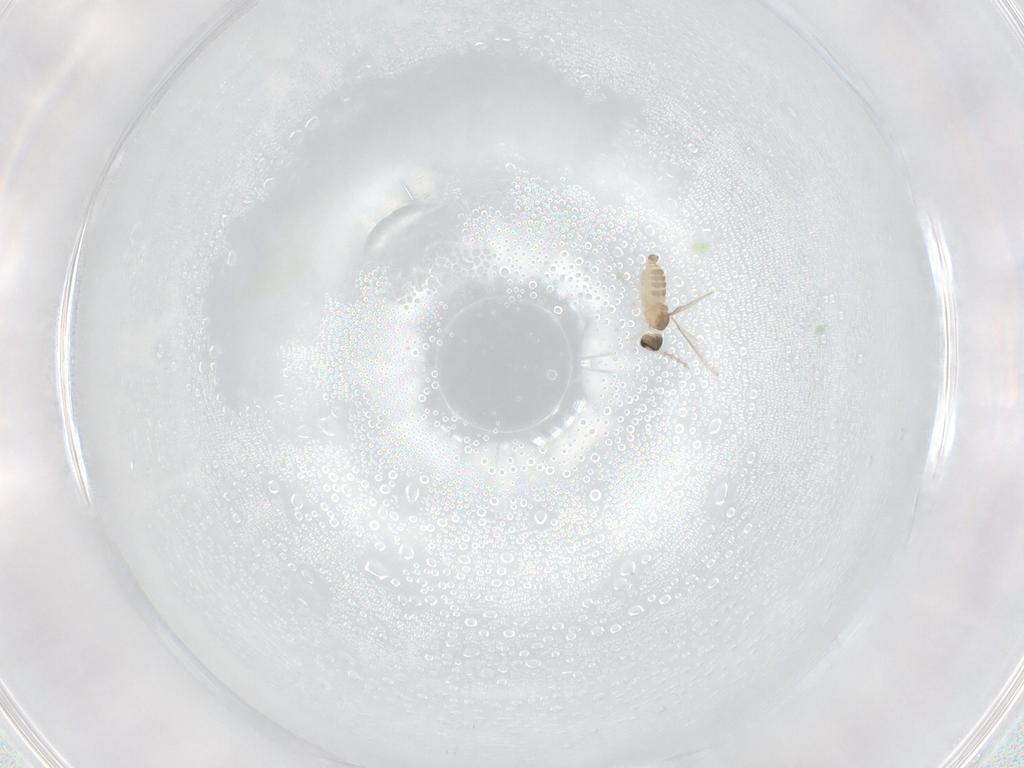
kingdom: Animalia
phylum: Arthropoda
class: Insecta
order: Diptera
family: Cecidomyiidae
